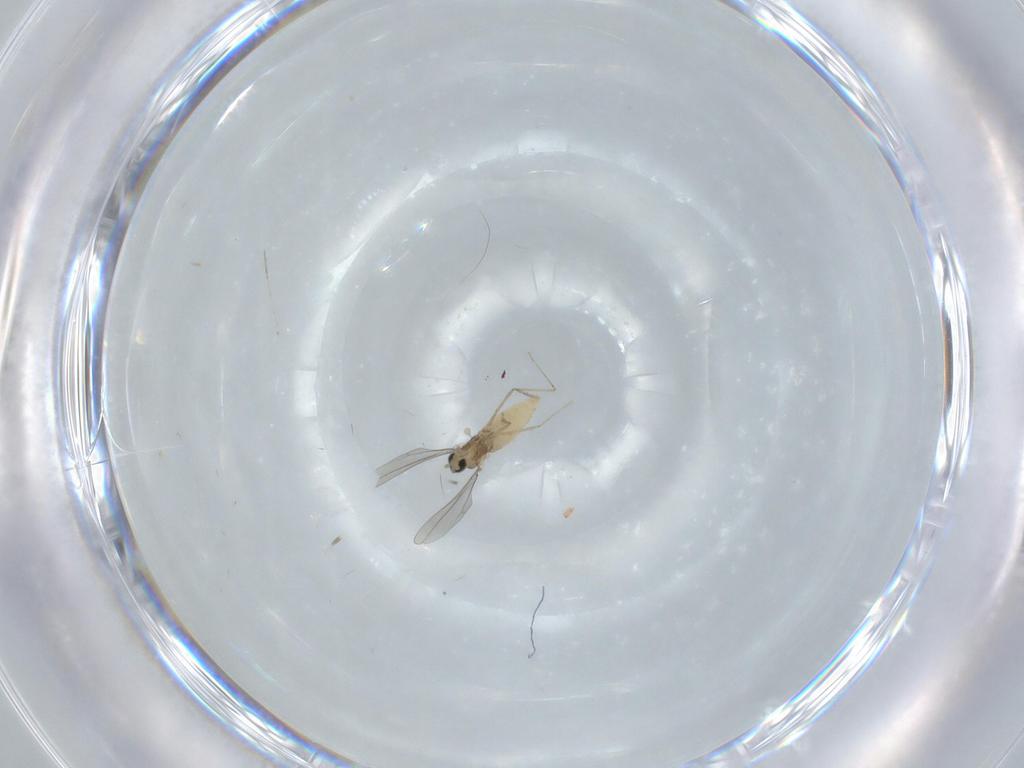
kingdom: Animalia
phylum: Arthropoda
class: Insecta
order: Diptera
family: Chironomidae
